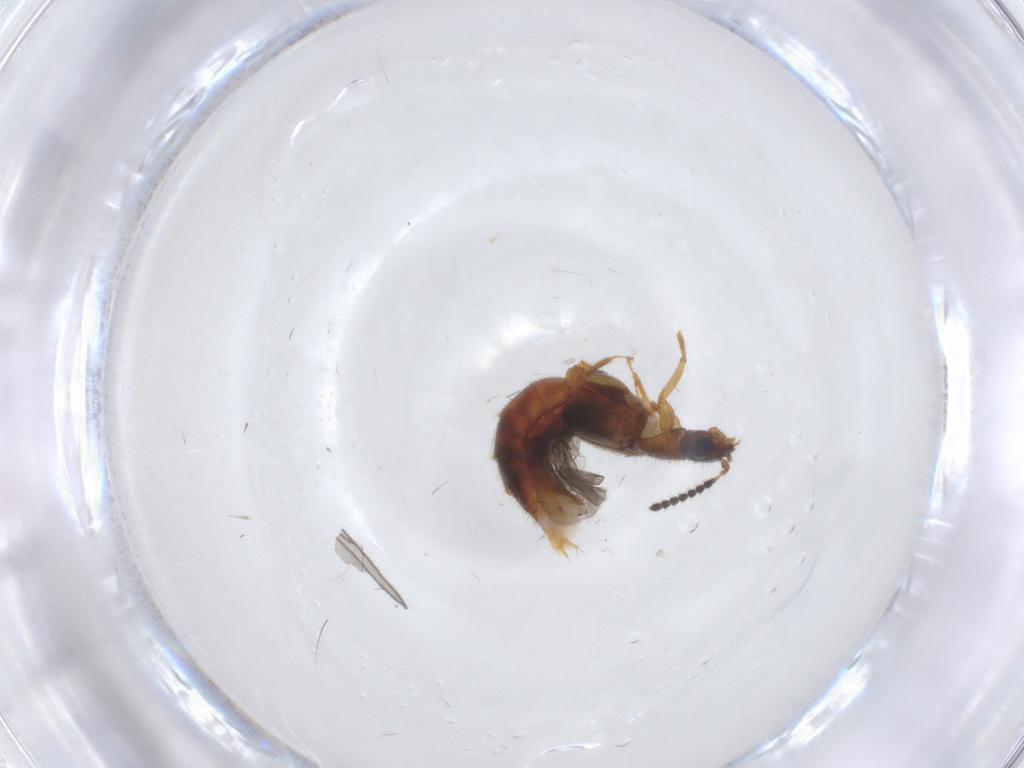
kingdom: Animalia
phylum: Arthropoda
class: Insecta
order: Coleoptera
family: Staphylinidae
